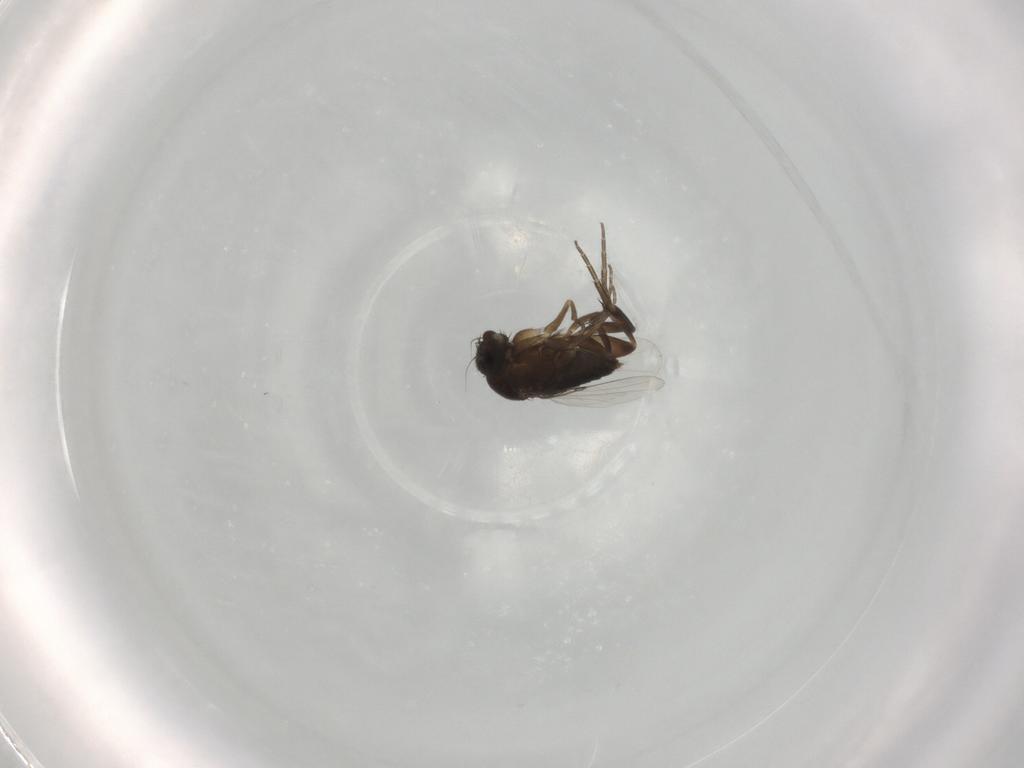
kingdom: Animalia
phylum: Arthropoda
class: Insecta
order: Diptera
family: Phoridae
